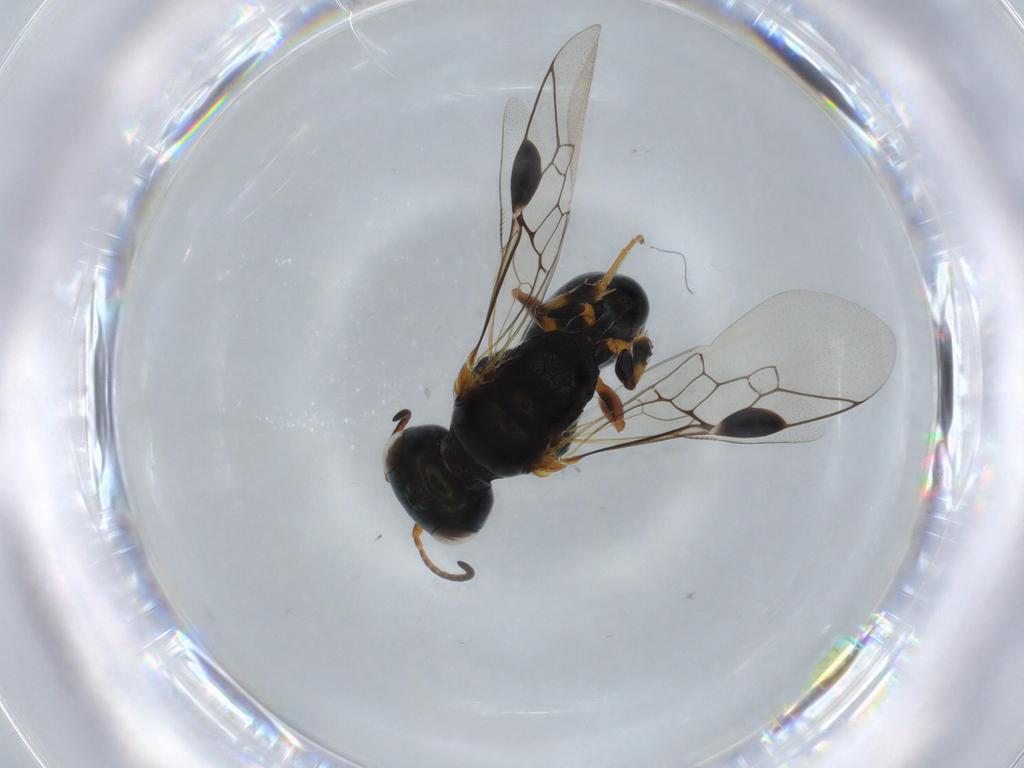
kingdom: Animalia
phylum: Arthropoda
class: Insecta
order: Hymenoptera
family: Pemphredonidae
